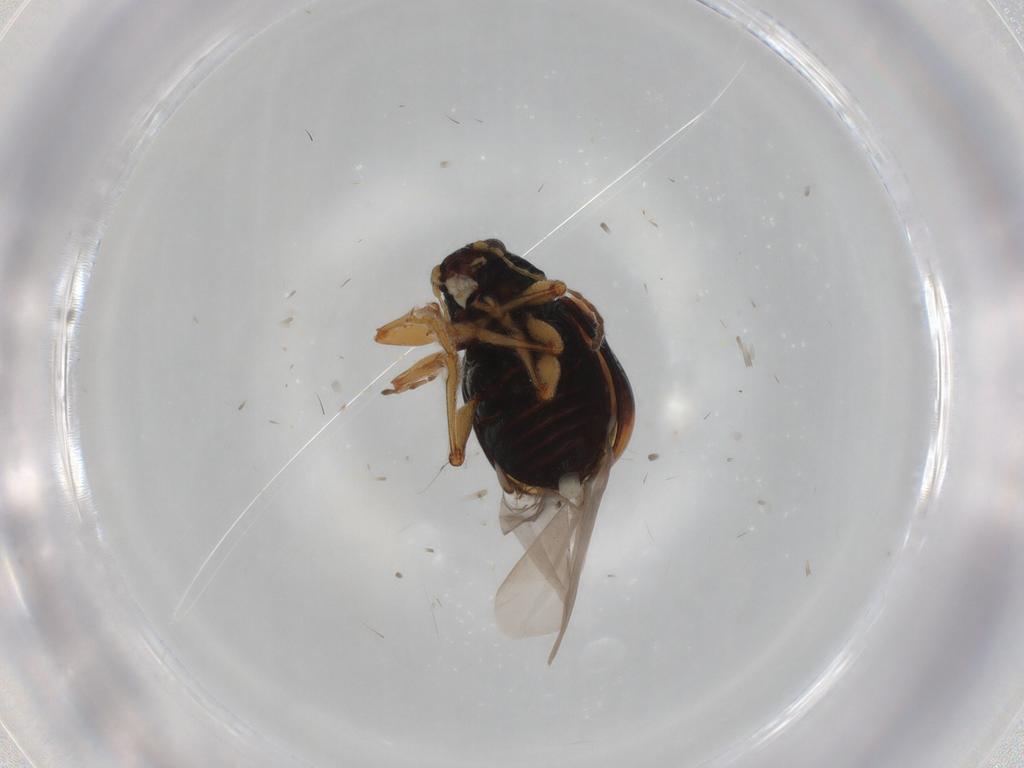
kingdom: Animalia
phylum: Arthropoda
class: Insecta
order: Coleoptera
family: Chrysomelidae
